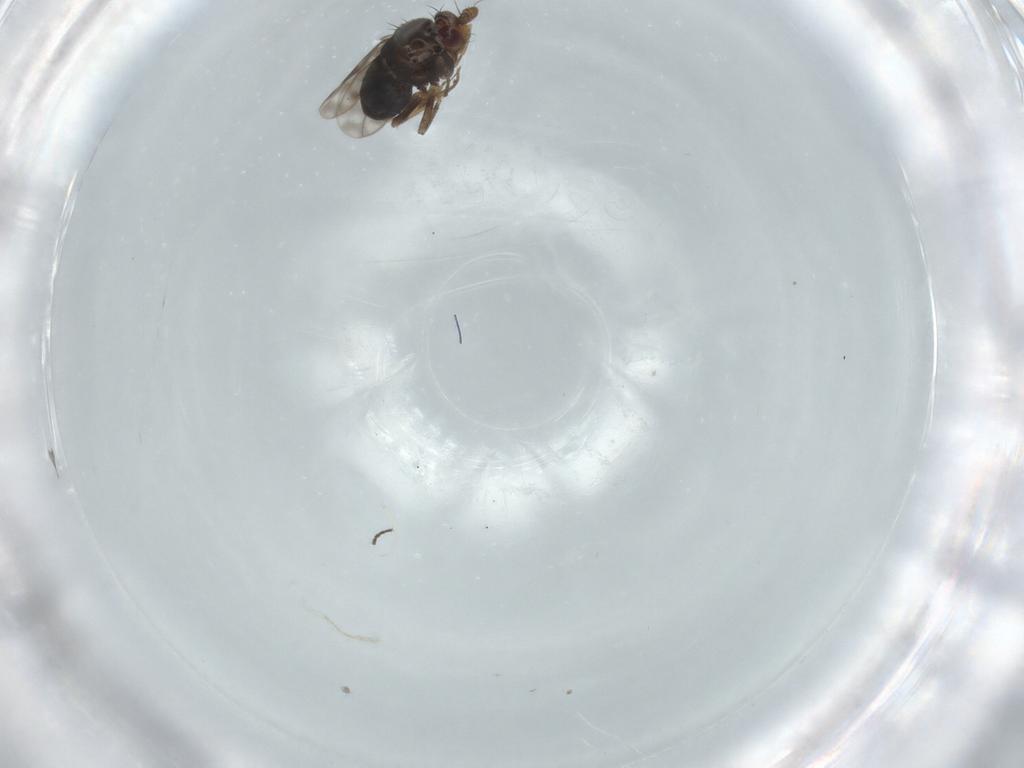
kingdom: Animalia
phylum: Arthropoda
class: Insecta
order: Diptera
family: Sphaeroceridae
